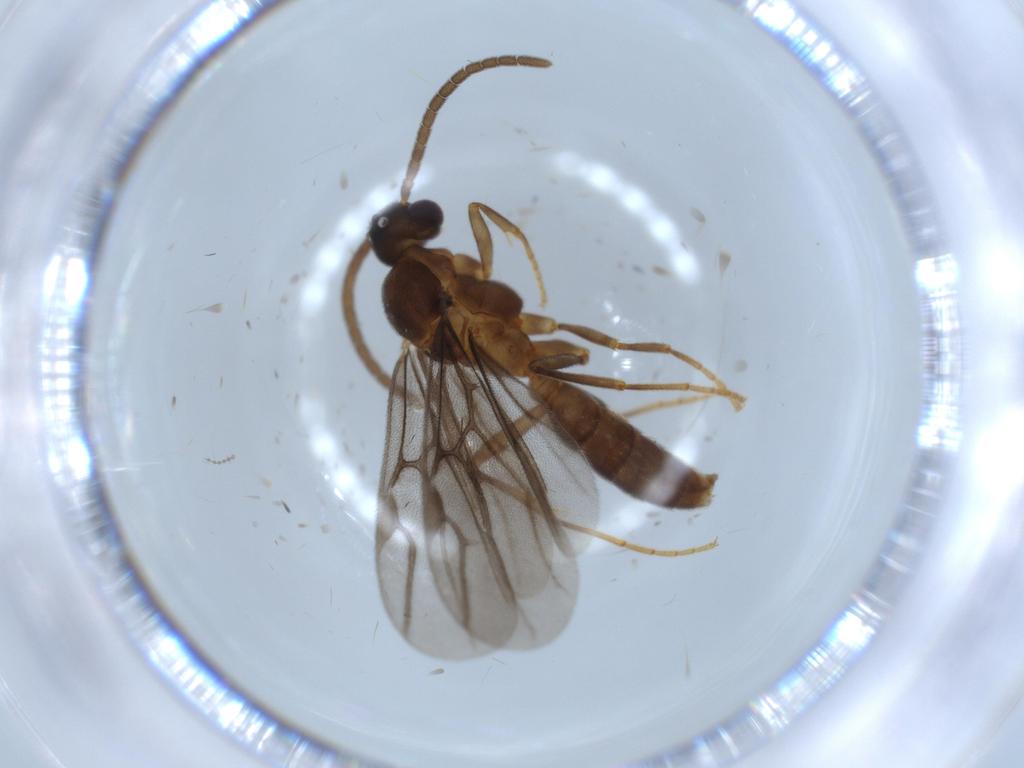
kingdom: Animalia
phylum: Arthropoda
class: Insecta
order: Hymenoptera
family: Formicidae
